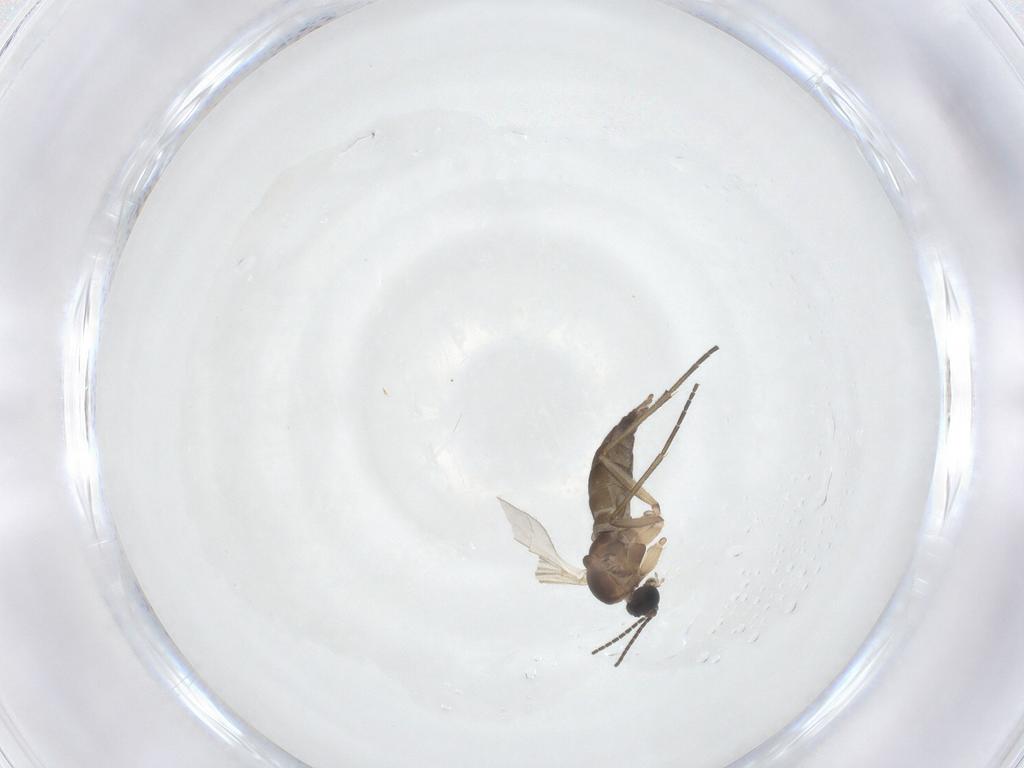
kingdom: Animalia
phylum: Arthropoda
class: Insecta
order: Diptera
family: Sciaridae
